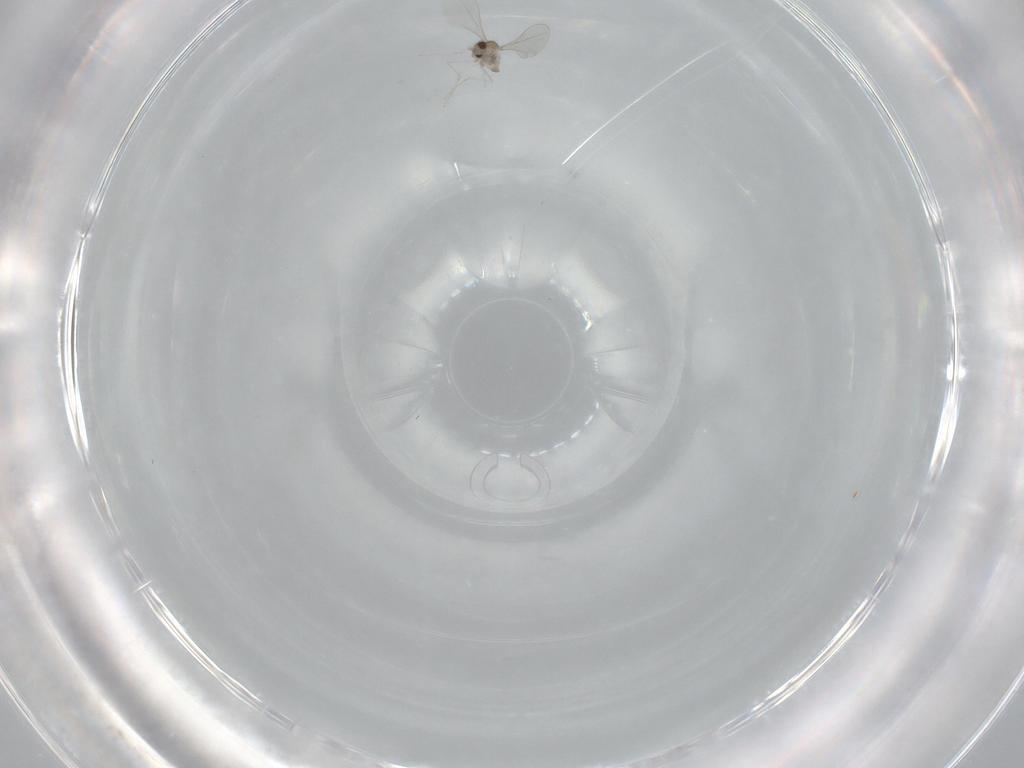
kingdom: Animalia
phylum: Arthropoda
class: Insecta
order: Diptera
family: Cecidomyiidae
